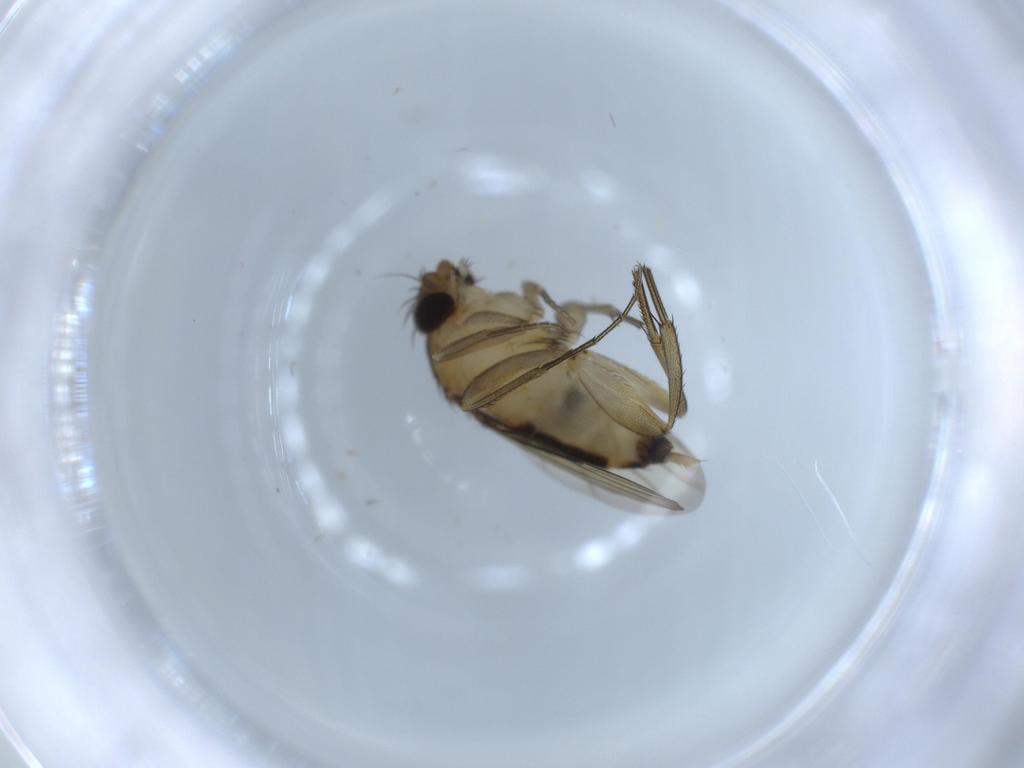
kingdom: Animalia
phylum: Arthropoda
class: Insecta
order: Diptera
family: Phoridae
